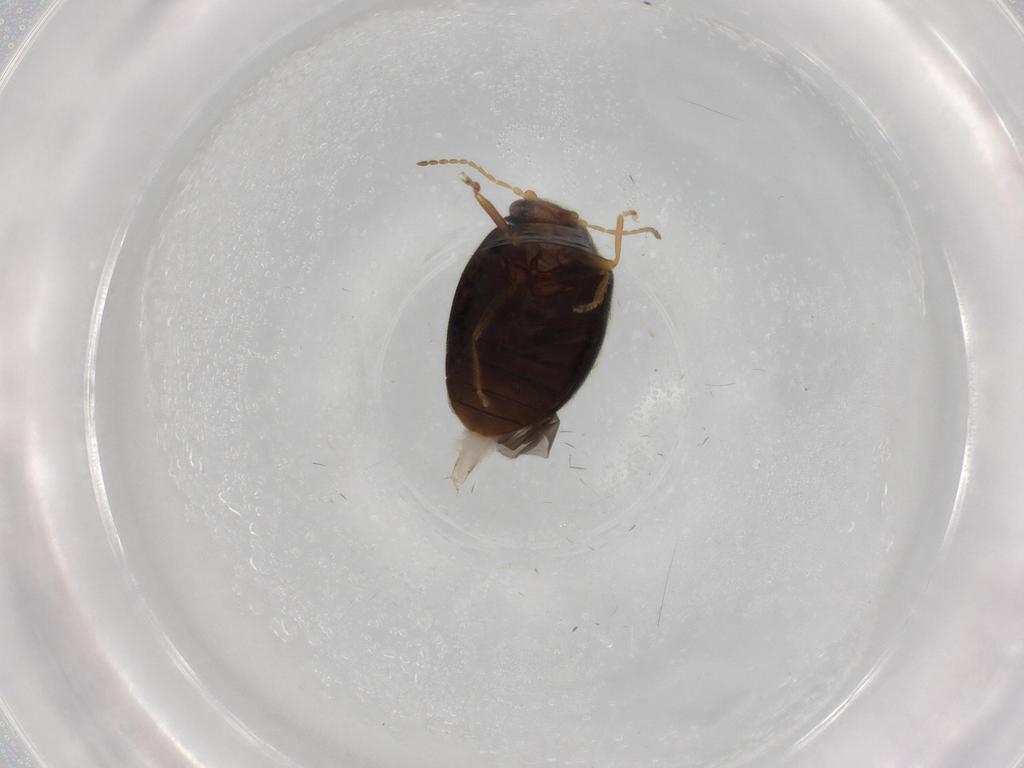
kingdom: Animalia
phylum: Arthropoda
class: Insecta
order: Coleoptera
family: Scirtidae
